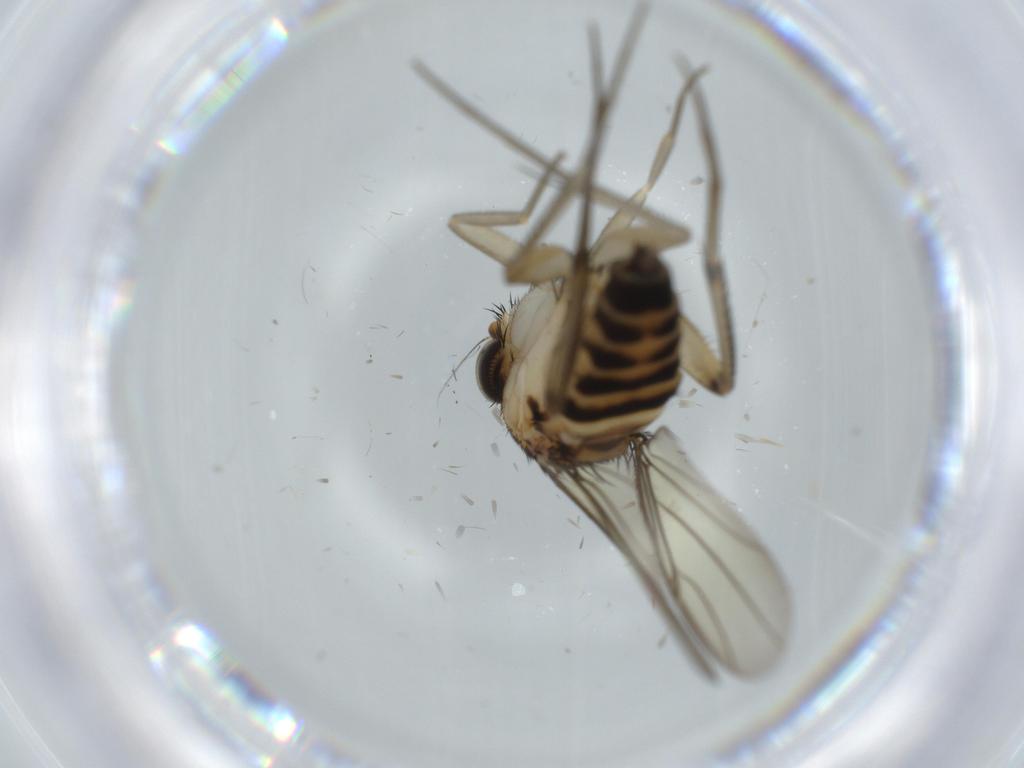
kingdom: Animalia
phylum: Arthropoda
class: Insecta
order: Diptera
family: Phoridae
